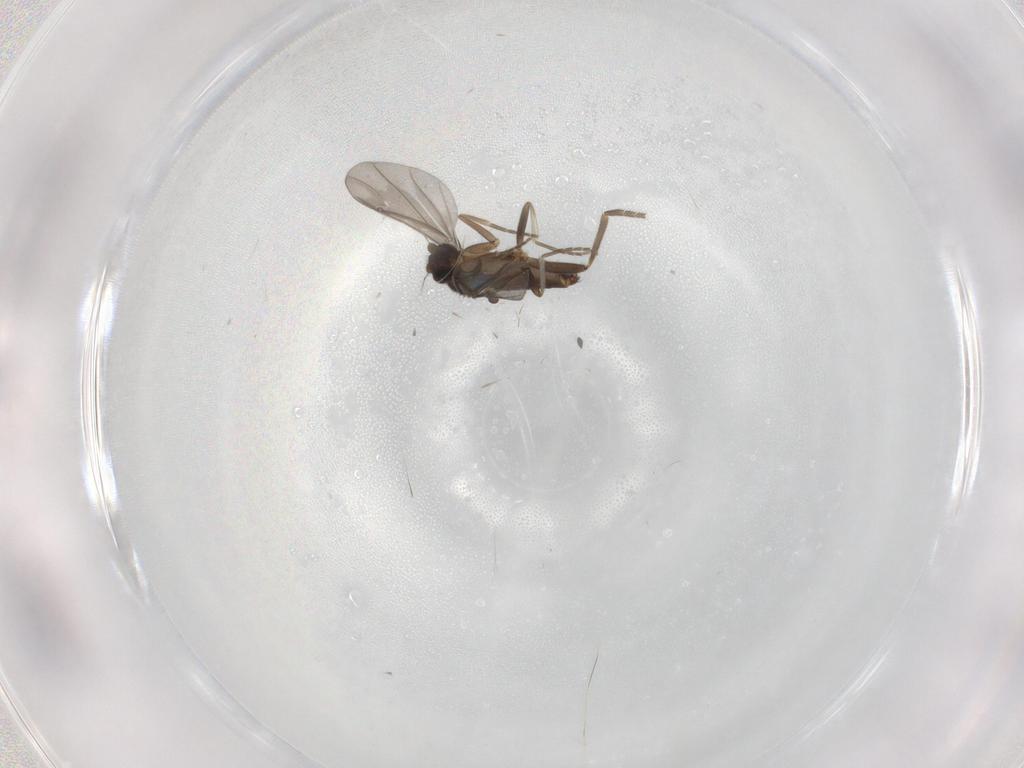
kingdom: Animalia
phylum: Arthropoda
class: Insecta
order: Diptera
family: Phoridae
